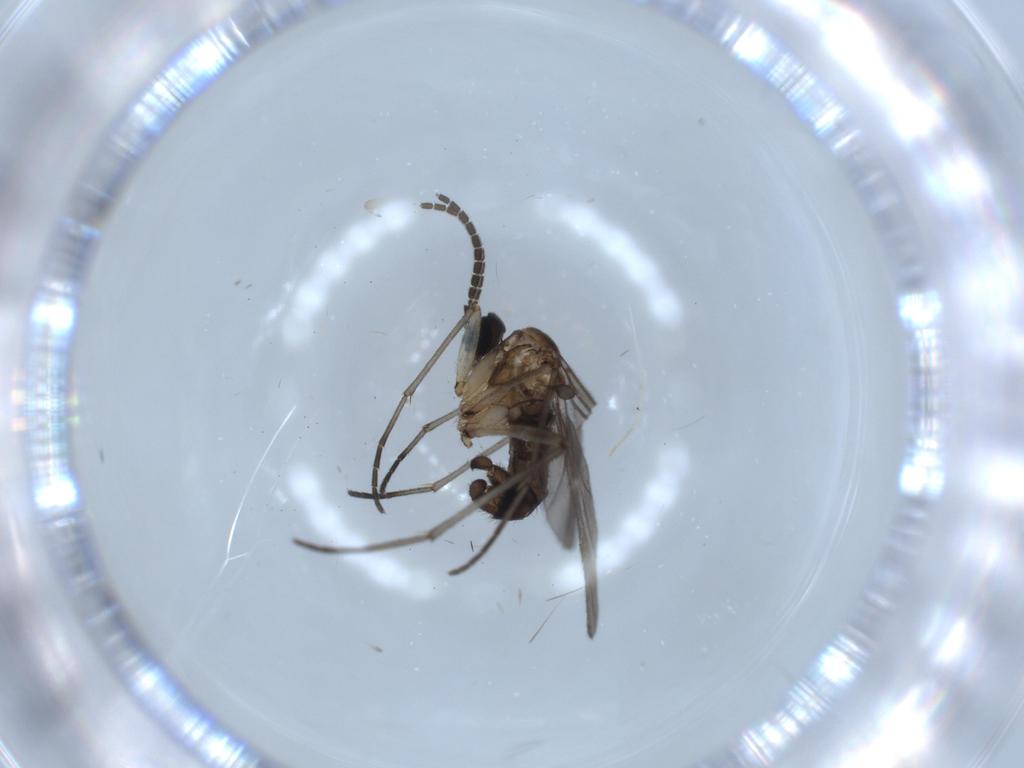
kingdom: Animalia
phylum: Arthropoda
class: Insecta
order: Diptera
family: Sciaridae
